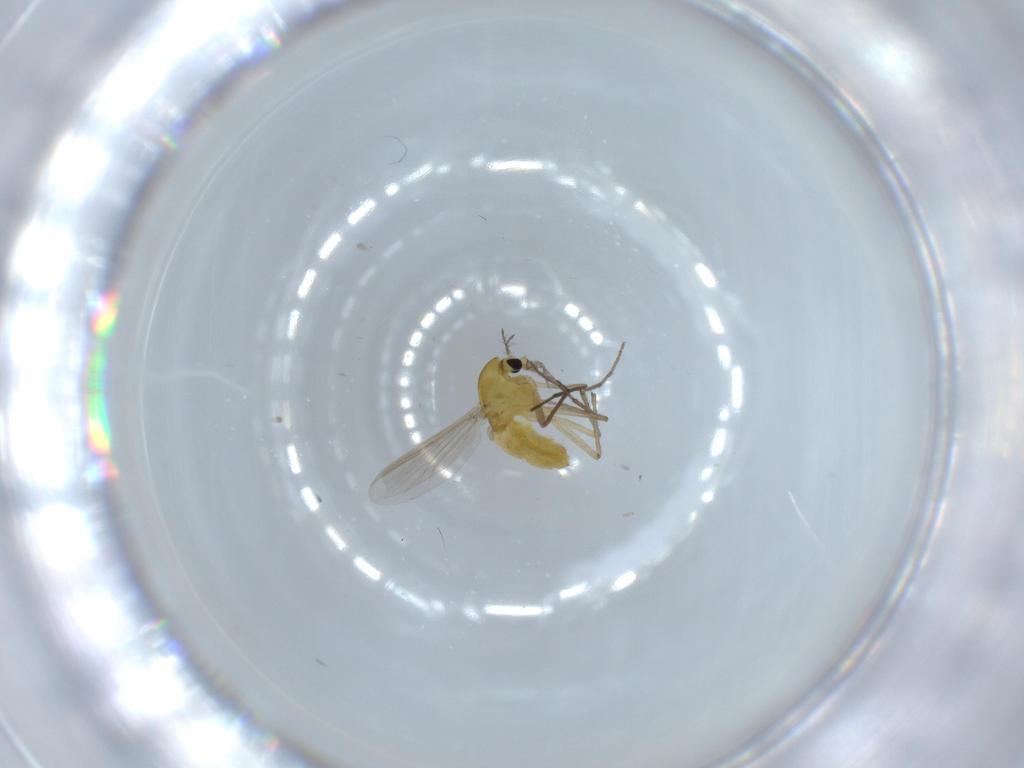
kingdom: Animalia
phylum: Arthropoda
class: Insecta
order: Diptera
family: Chironomidae
